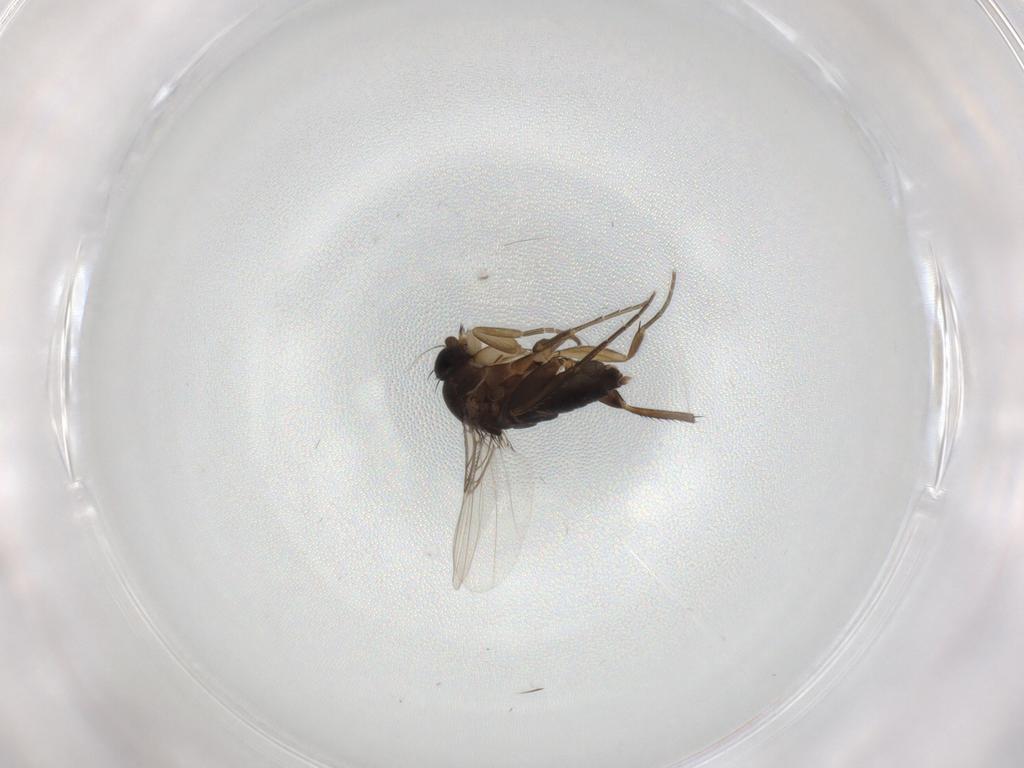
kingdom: Animalia
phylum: Arthropoda
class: Insecta
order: Diptera
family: Phoridae
